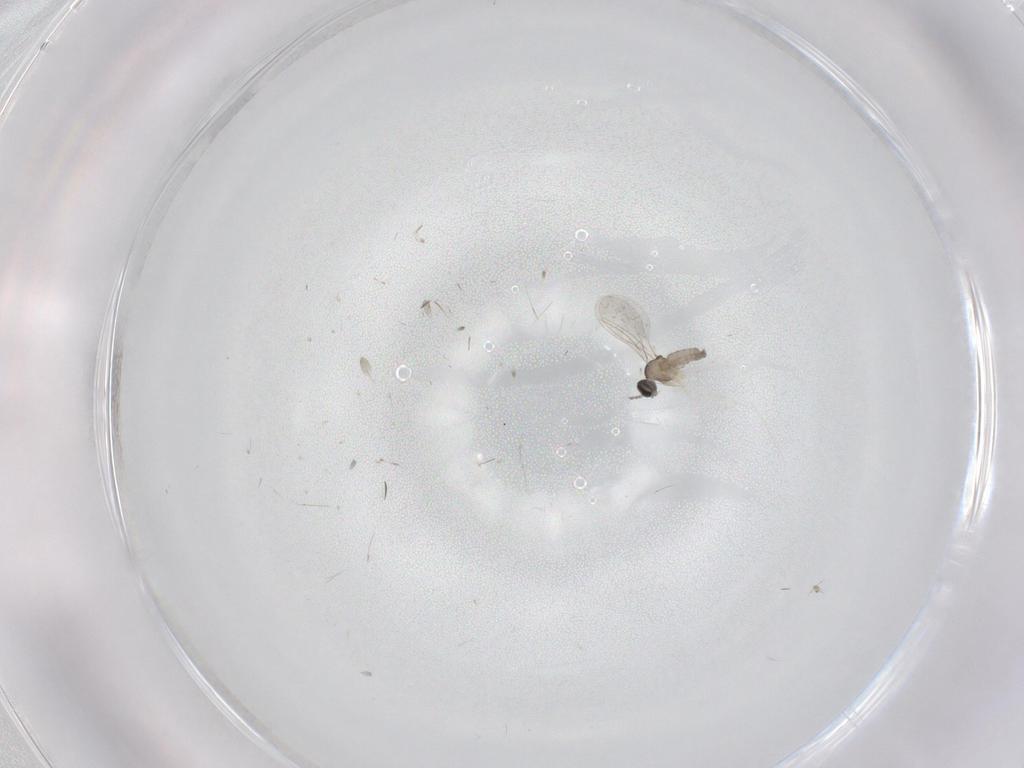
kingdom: Animalia
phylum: Arthropoda
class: Insecta
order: Diptera
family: Cecidomyiidae
